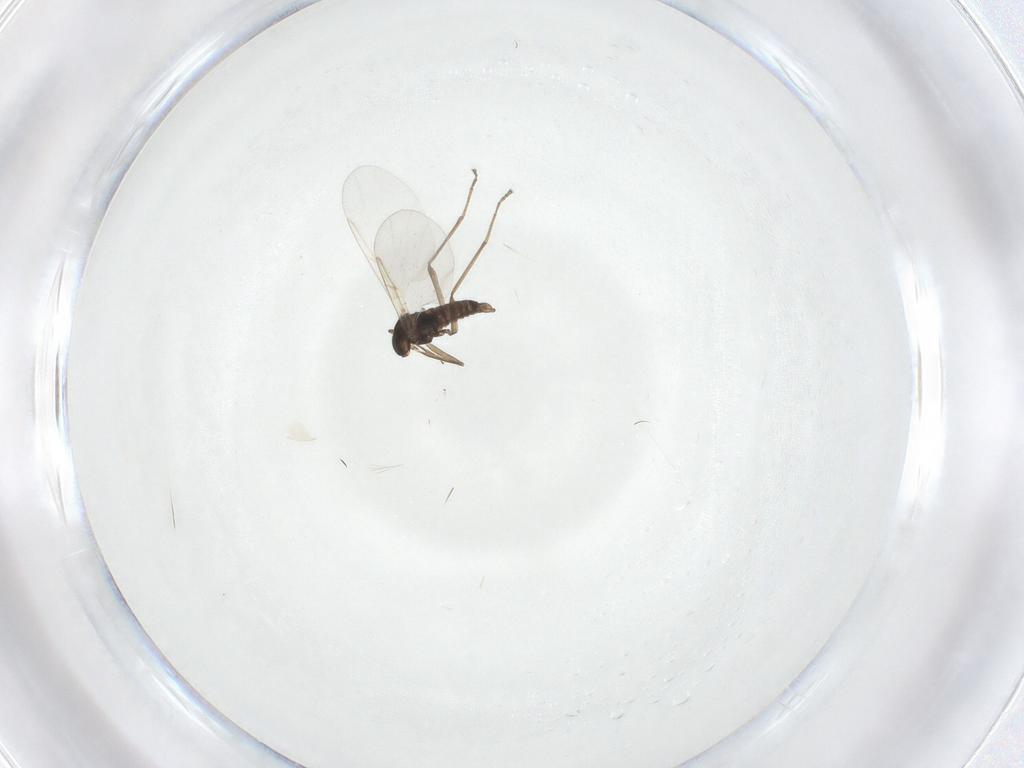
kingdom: Animalia
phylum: Arthropoda
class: Insecta
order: Diptera
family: Cecidomyiidae
